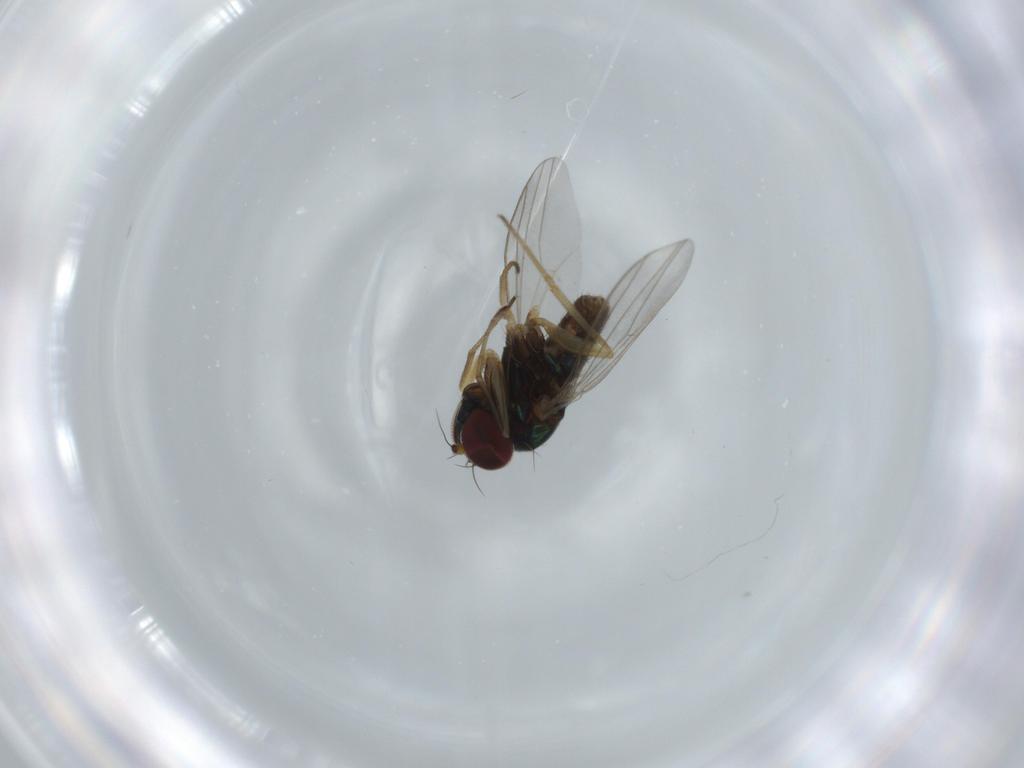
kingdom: Animalia
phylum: Arthropoda
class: Insecta
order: Diptera
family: Dolichopodidae
